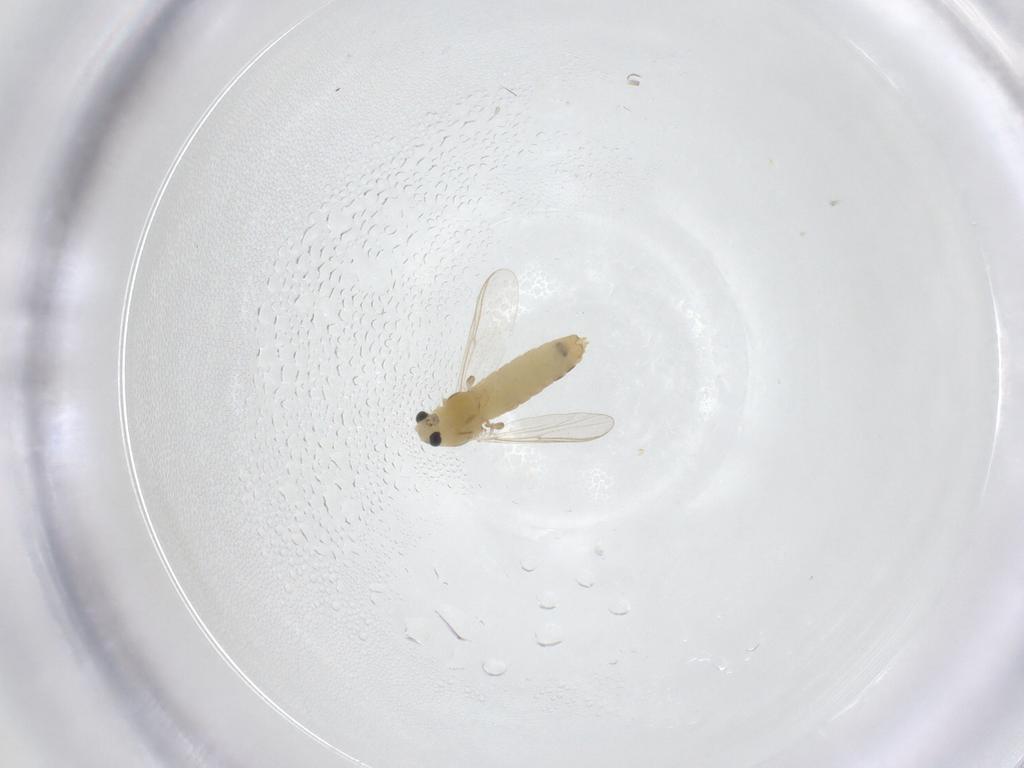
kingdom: Animalia
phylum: Arthropoda
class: Insecta
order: Diptera
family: Chironomidae
